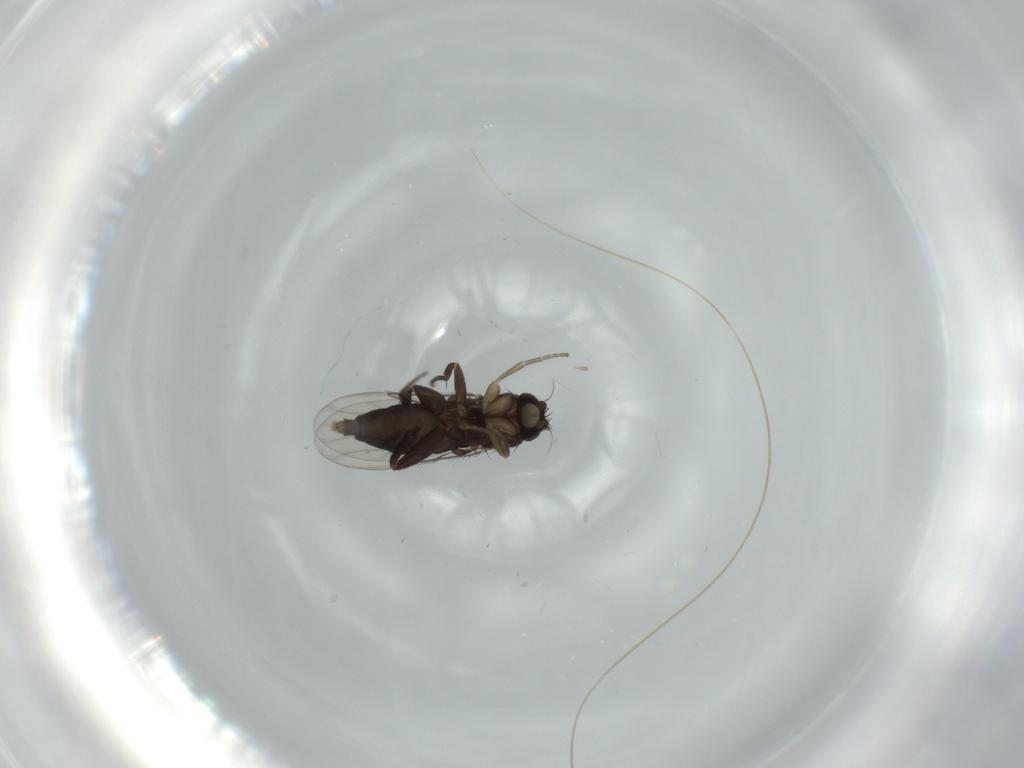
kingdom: Animalia
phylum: Arthropoda
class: Insecta
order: Diptera
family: Phoridae
